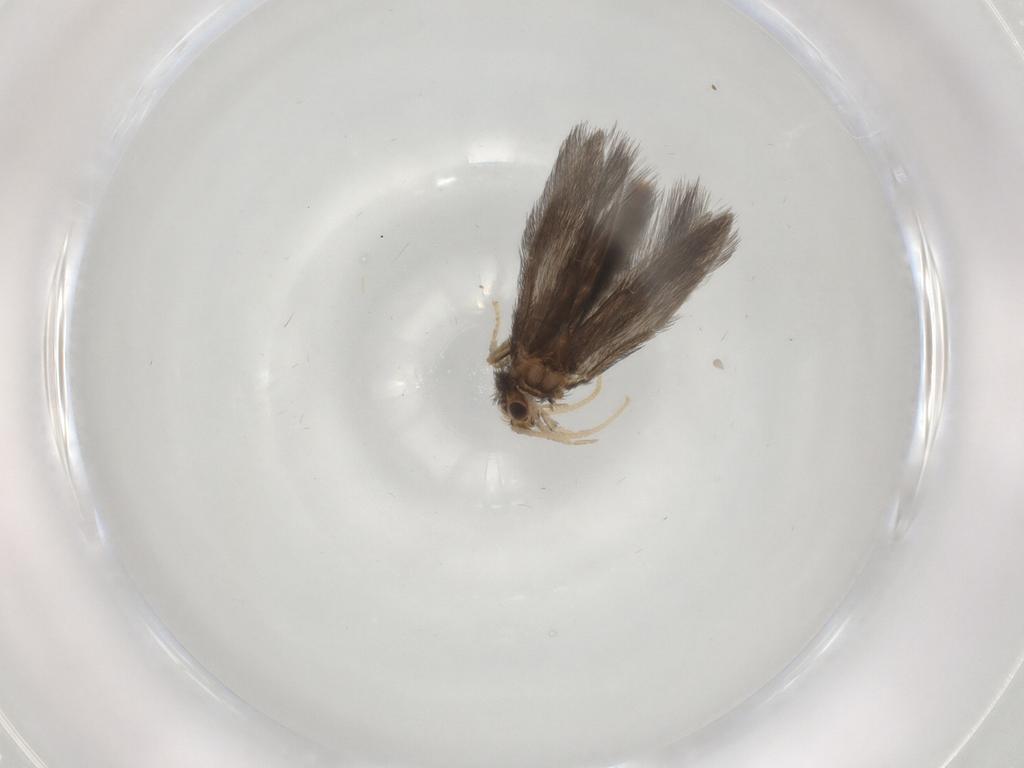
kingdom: Animalia
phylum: Arthropoda
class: Insecta
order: Trichoptera
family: Hydroptilidae
